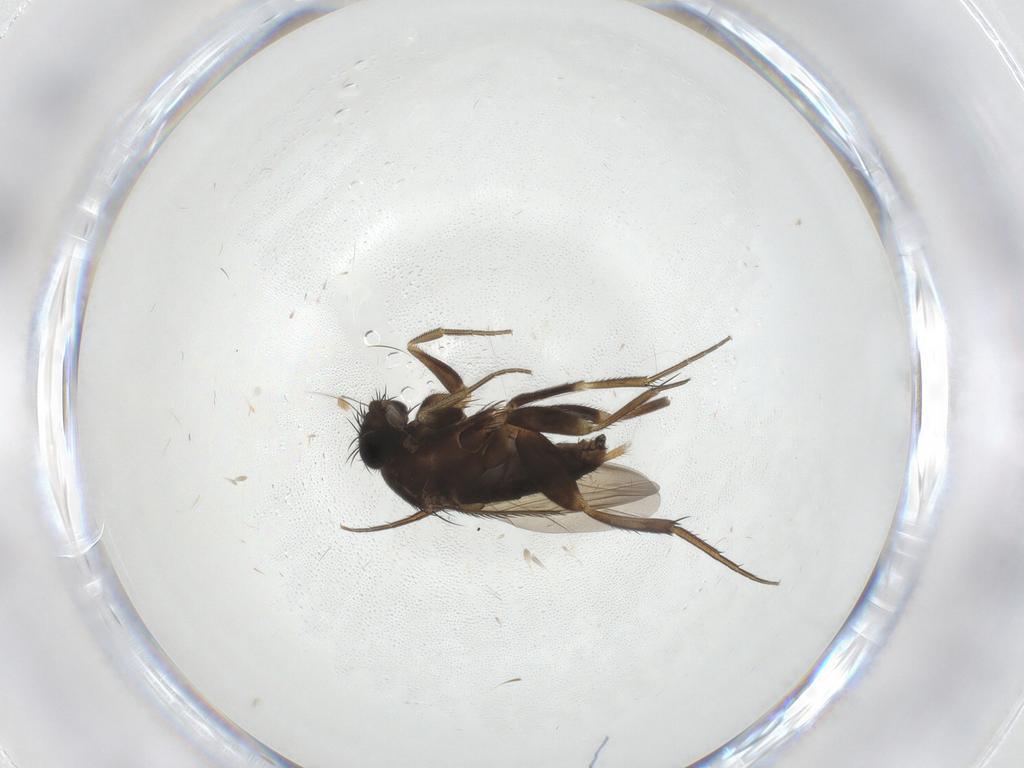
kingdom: Animalia
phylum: Arthropoda
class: Insecta
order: Diptera
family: Phoridae
